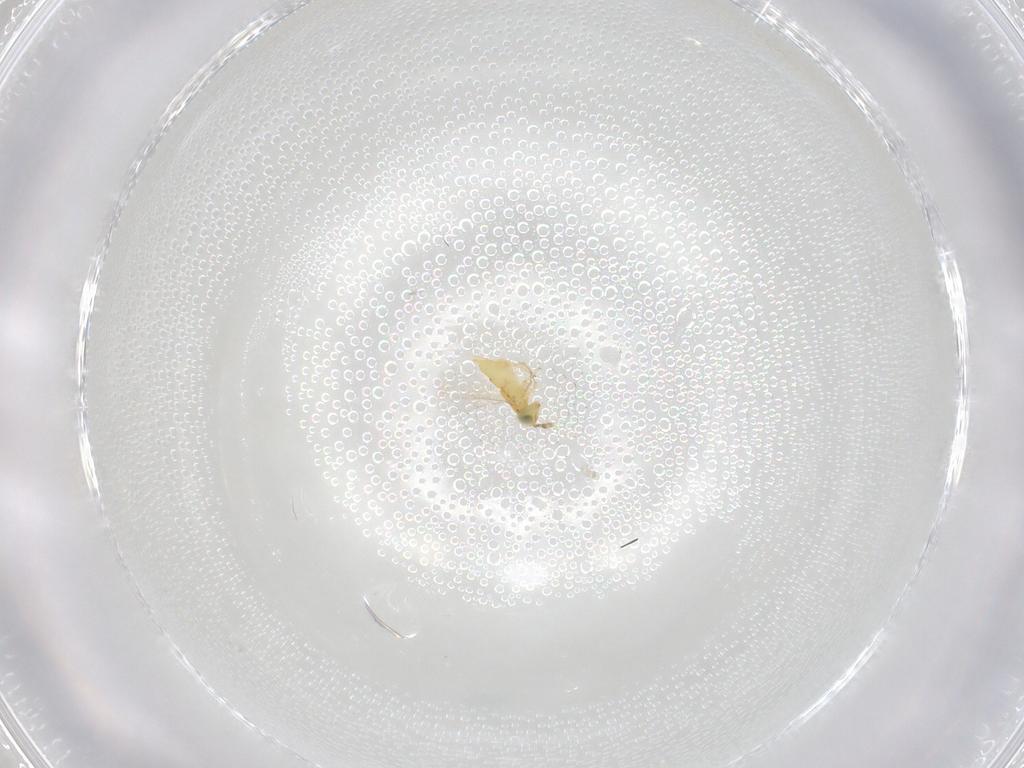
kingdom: Animalia
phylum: Arthropoda
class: Insecta
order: Hymenoptera
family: Ichneumonidae
